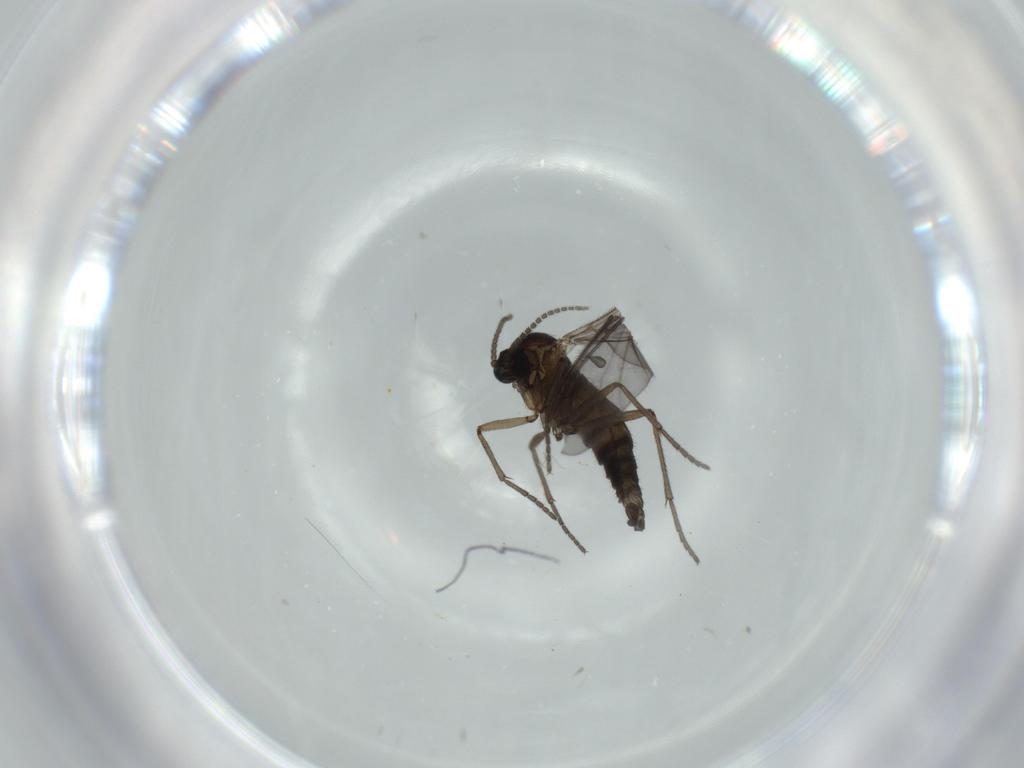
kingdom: Animalia
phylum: Arthropoda
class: Insecta
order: Diptera
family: Sciaridae
